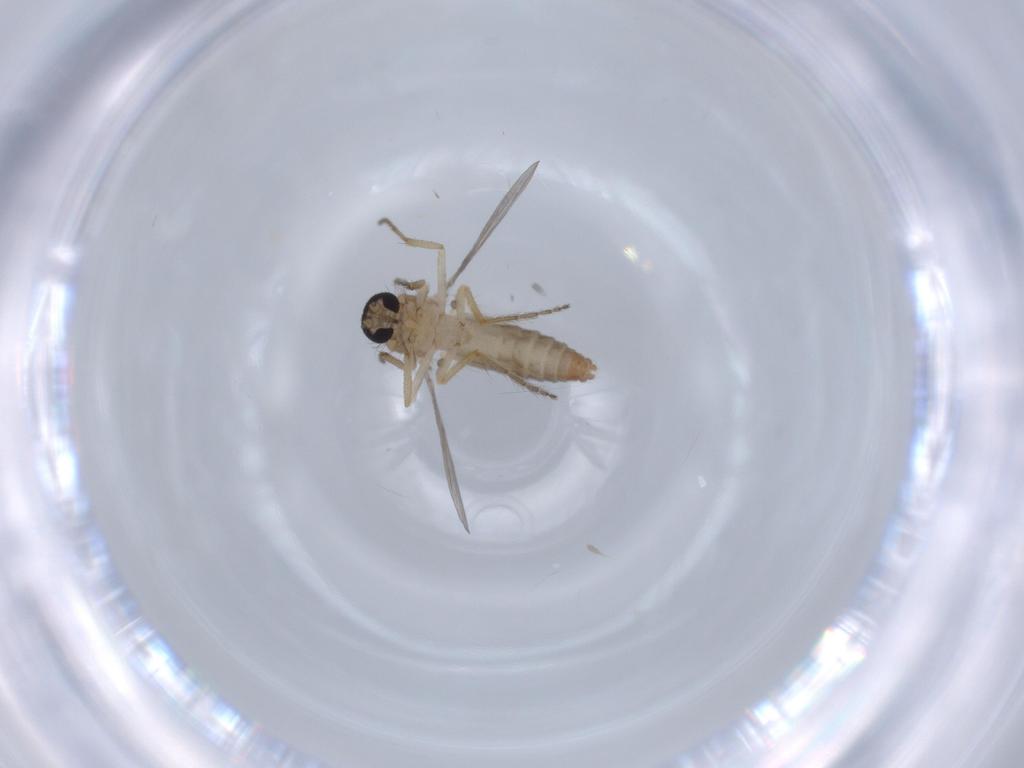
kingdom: Animalia
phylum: Arthropoda
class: Insecta
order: Diptera
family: Ceratopogonidae
